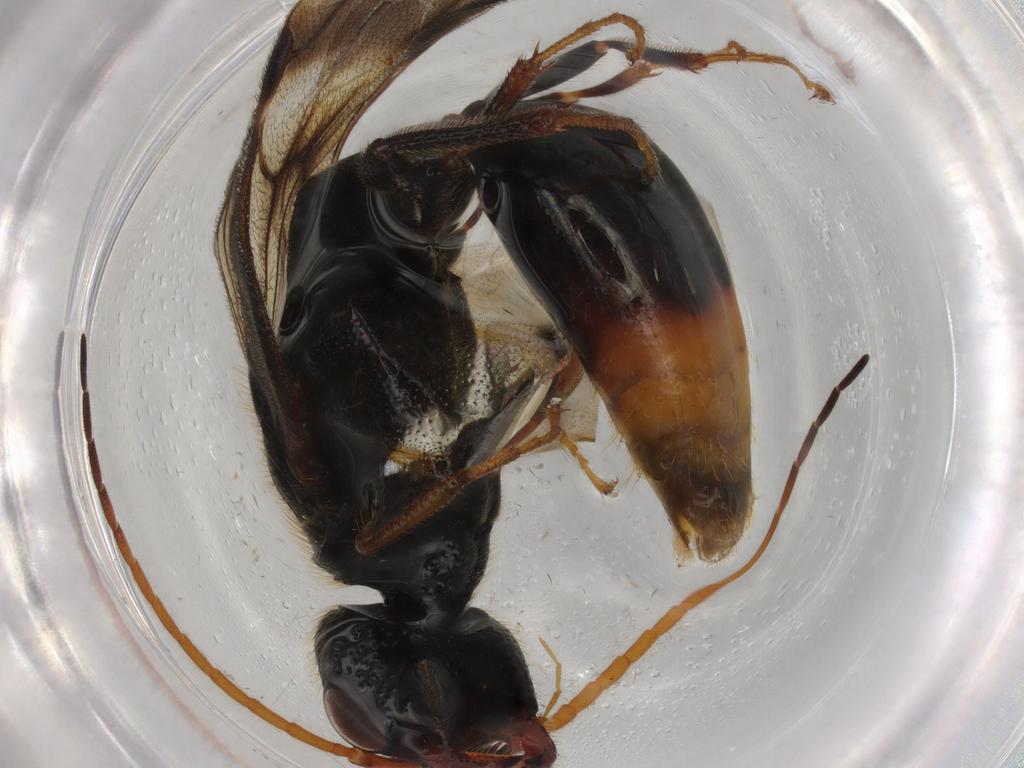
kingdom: Animalia
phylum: Arthropoda
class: Insecta
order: Hymenoptera
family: Bethylidae
